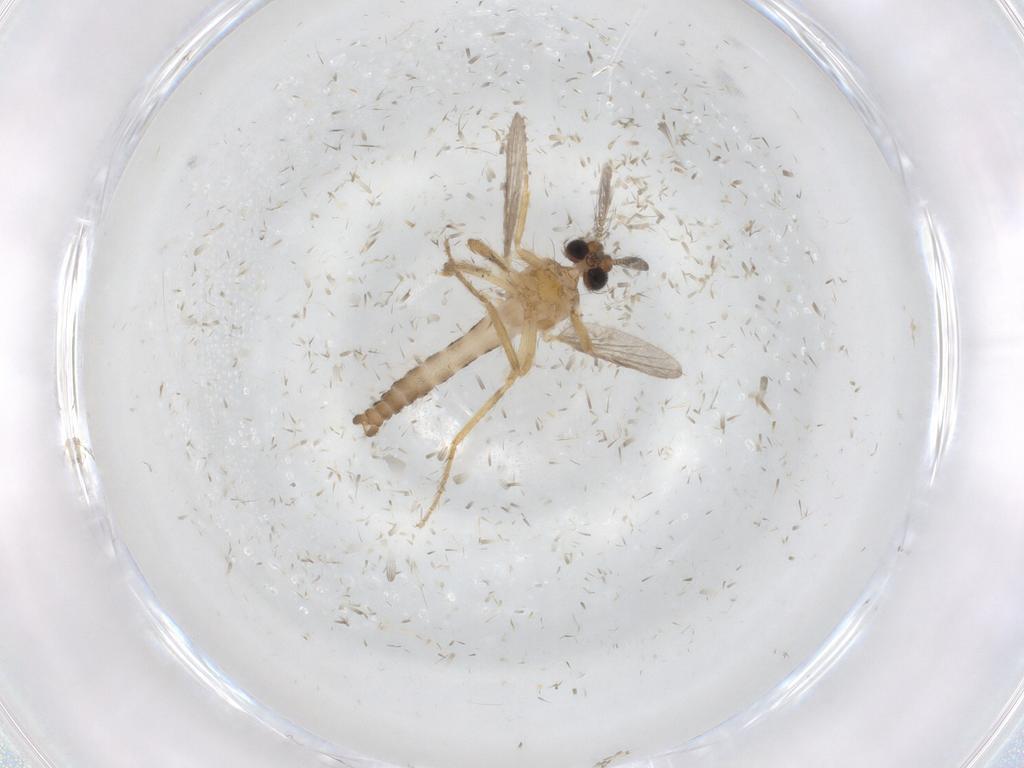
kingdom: Animalia
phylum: Arthropoda
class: Insecta
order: Diptera
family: Ceratopogonidae
